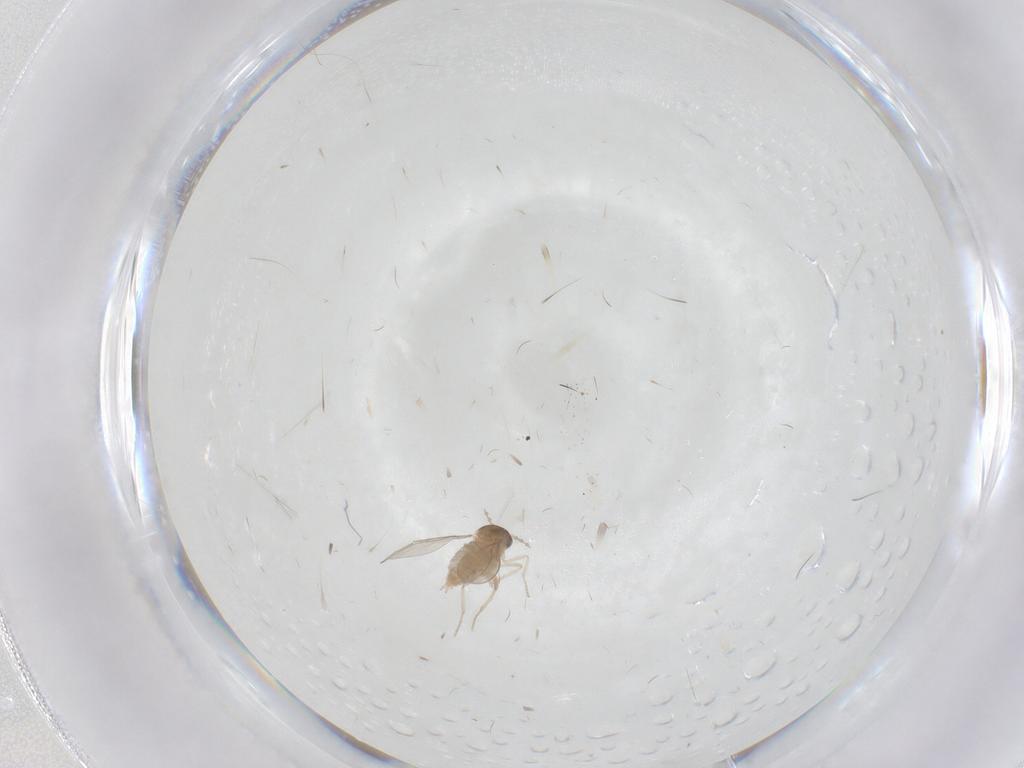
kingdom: Animalia
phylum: Arthropoda
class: Insecta
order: Diptera
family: Cecidomyiidae
